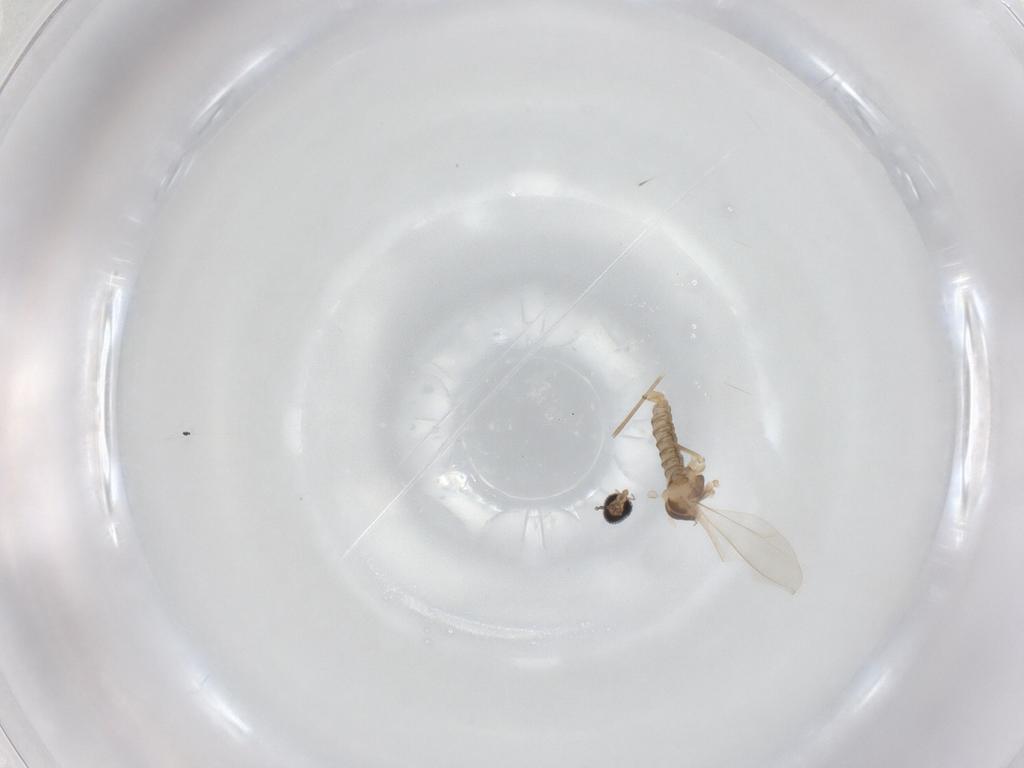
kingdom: Animalia
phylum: Arthropoda
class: Insecta
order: Diptera
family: Cecidomyiidae
